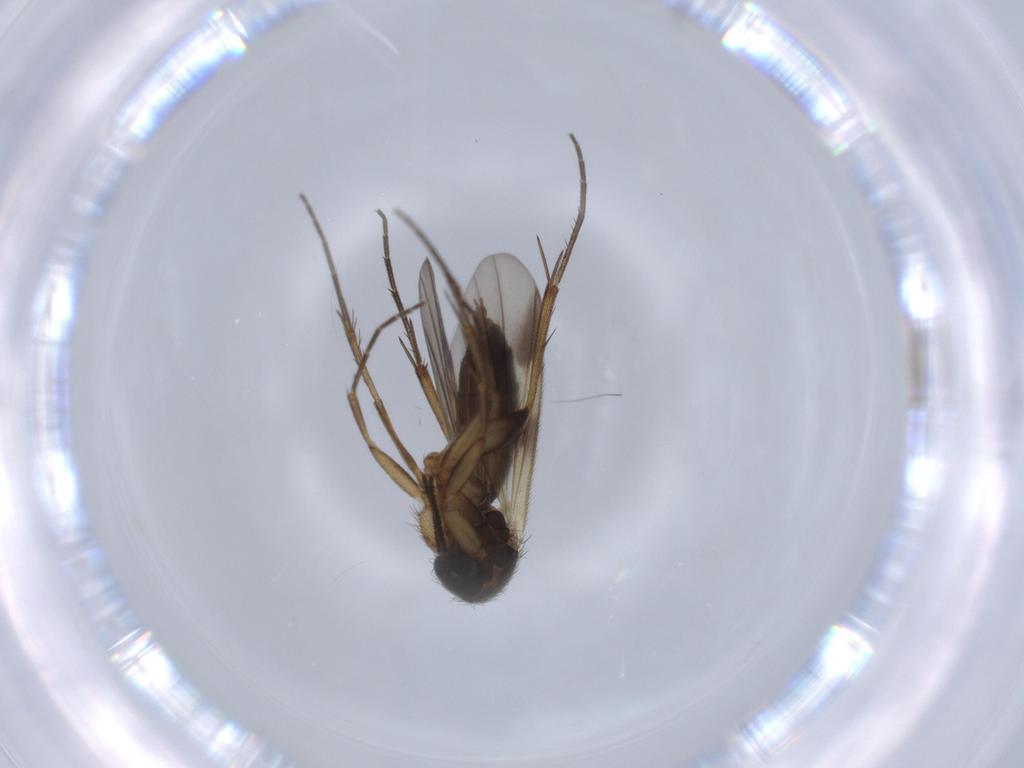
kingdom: Animalia
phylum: Arthropoda
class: Insecta
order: Diptera
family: Mycetophilidae
